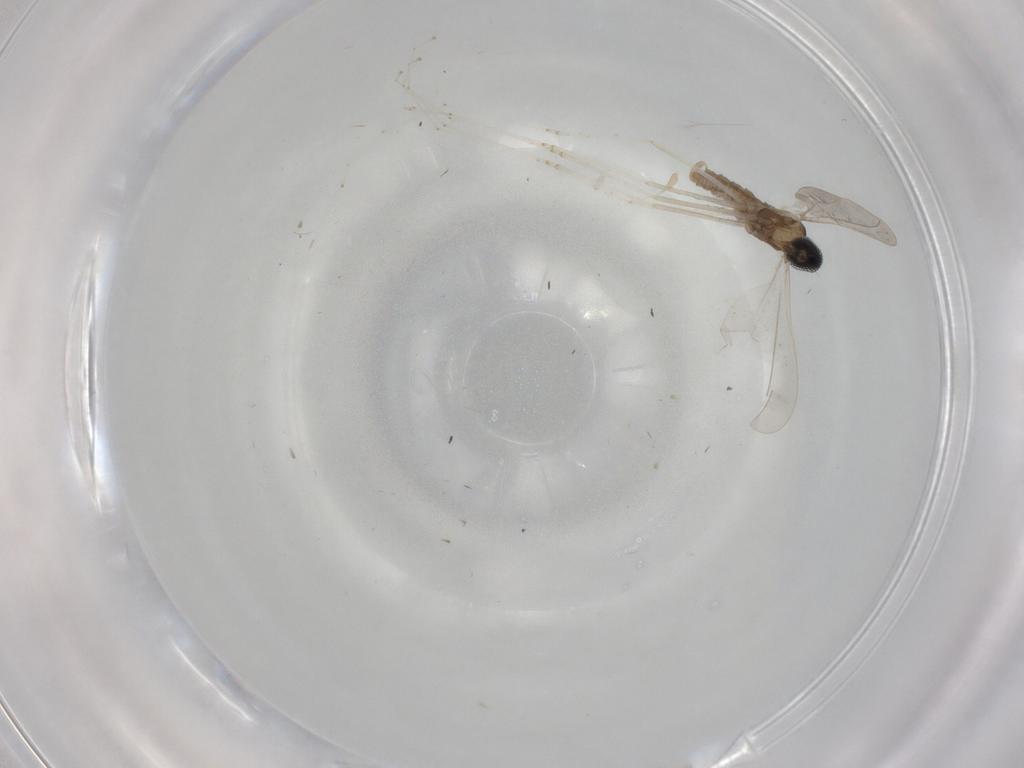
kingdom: Animalia
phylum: Arthropoda
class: Insecta
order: Diptera
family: Cecidomyiidae
